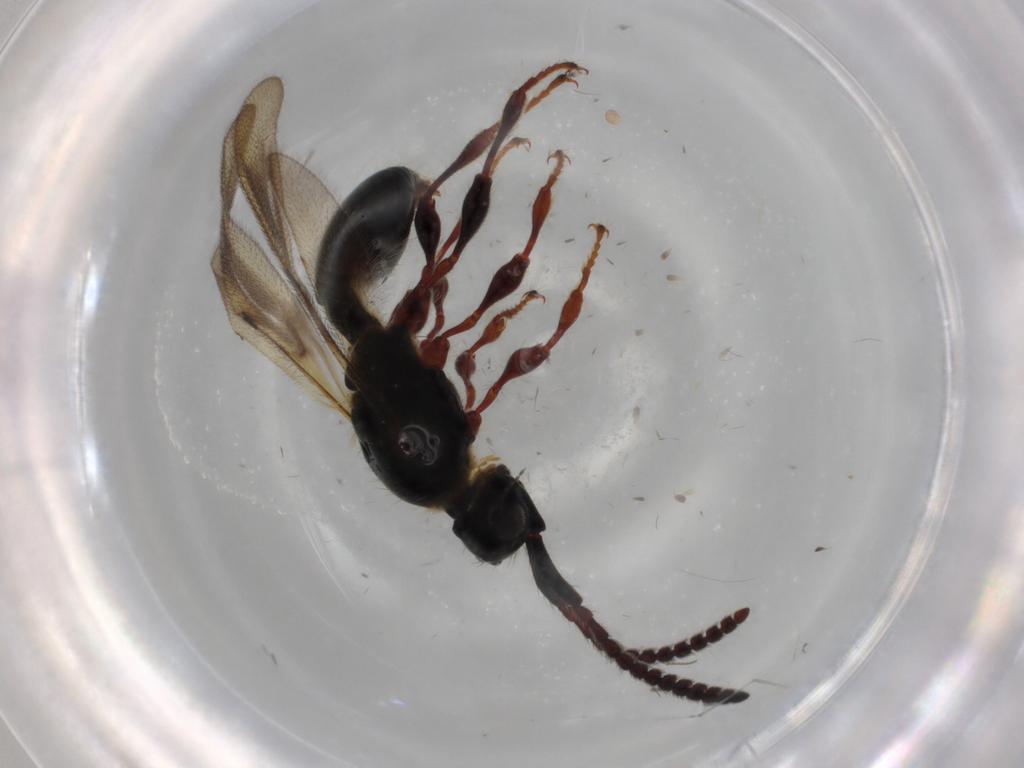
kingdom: Animalia
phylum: Arthropoda
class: Insecta
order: Hymenoptera
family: Diapriidae
